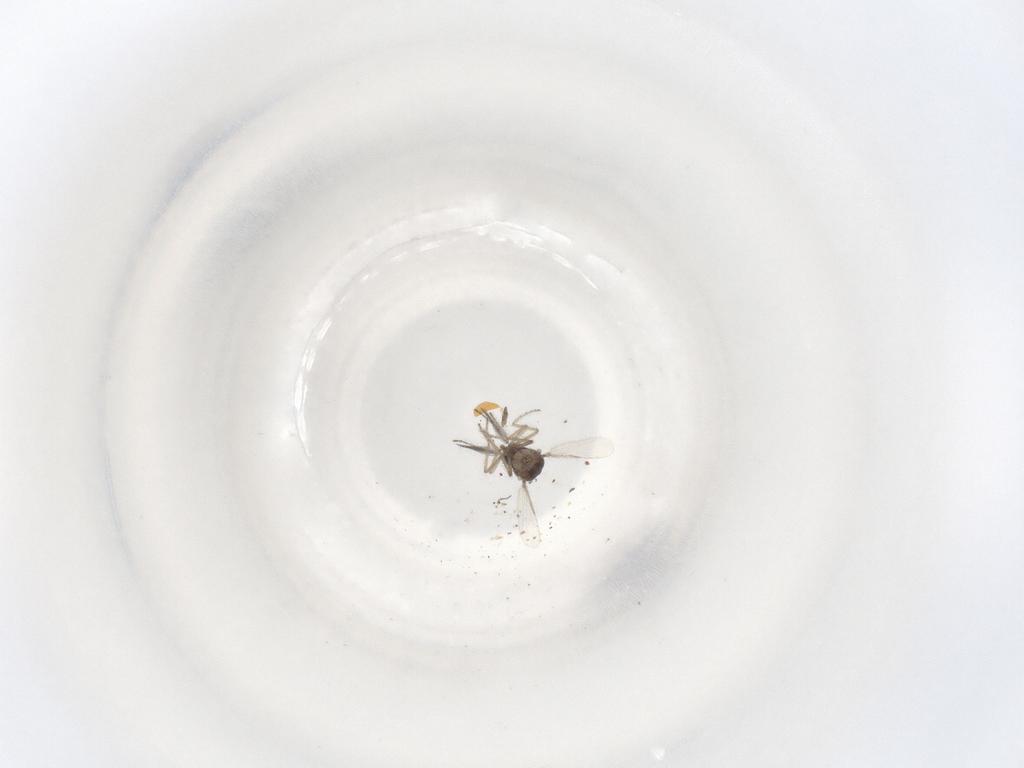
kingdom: Animalia
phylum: Arthropoda
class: Insecta
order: Diptera
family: Ceratopogonidae
